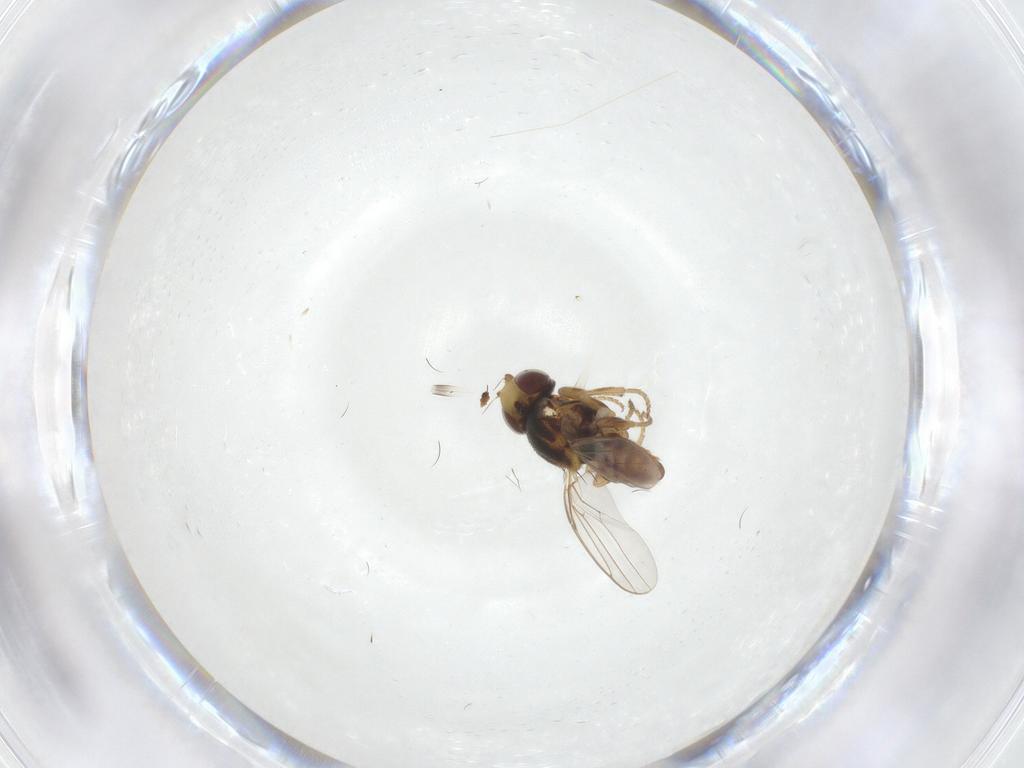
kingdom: Animalia
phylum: Arthropoda
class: Insecta
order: Diptera
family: Chloropidae
